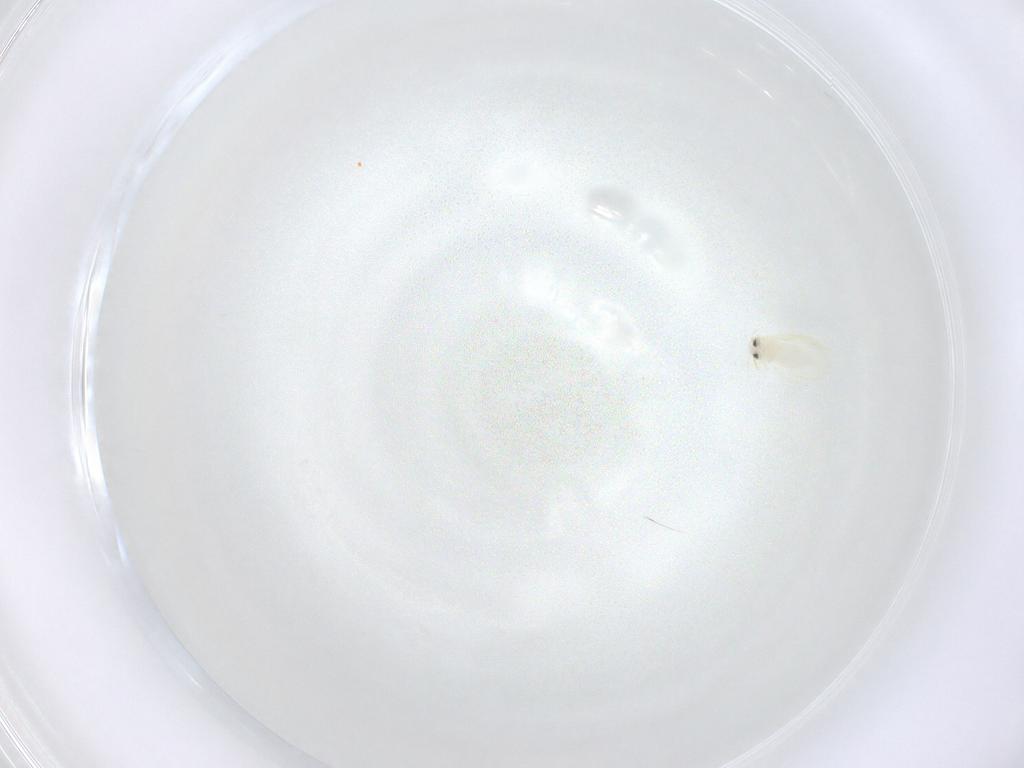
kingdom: Animalia
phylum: Arthropoda
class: Insecta
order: Hemiptera
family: Aleyrodidae
